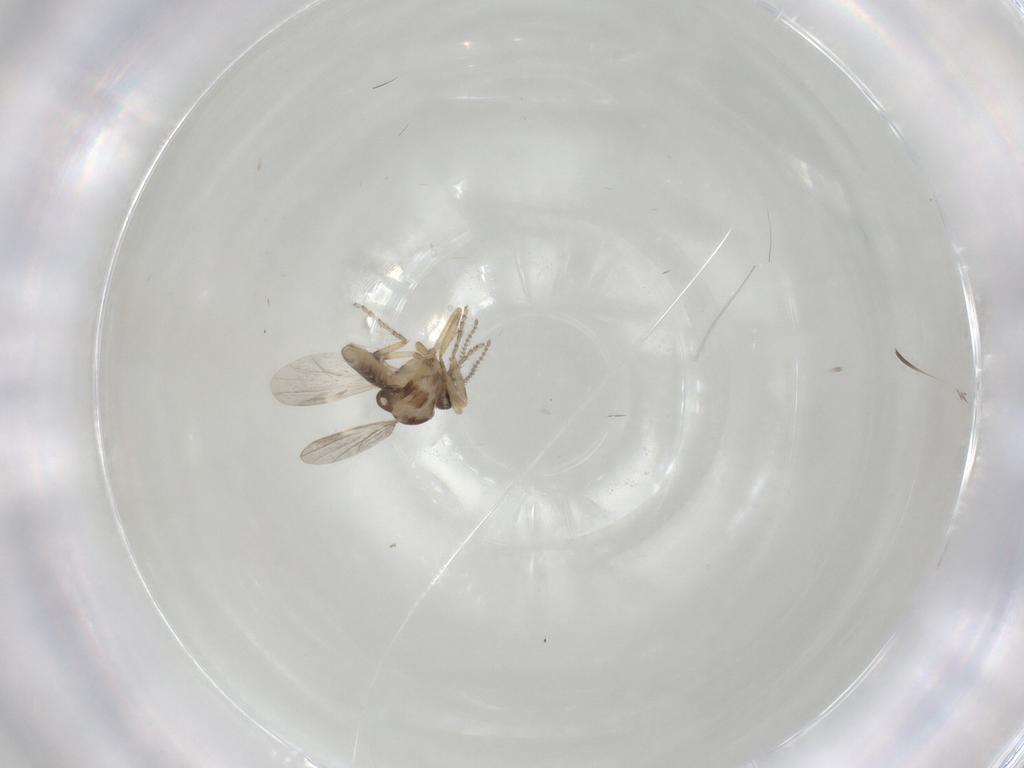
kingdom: Animalia
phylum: Arthropoda
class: Insecta
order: Diptera
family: Ceratopogonidae
